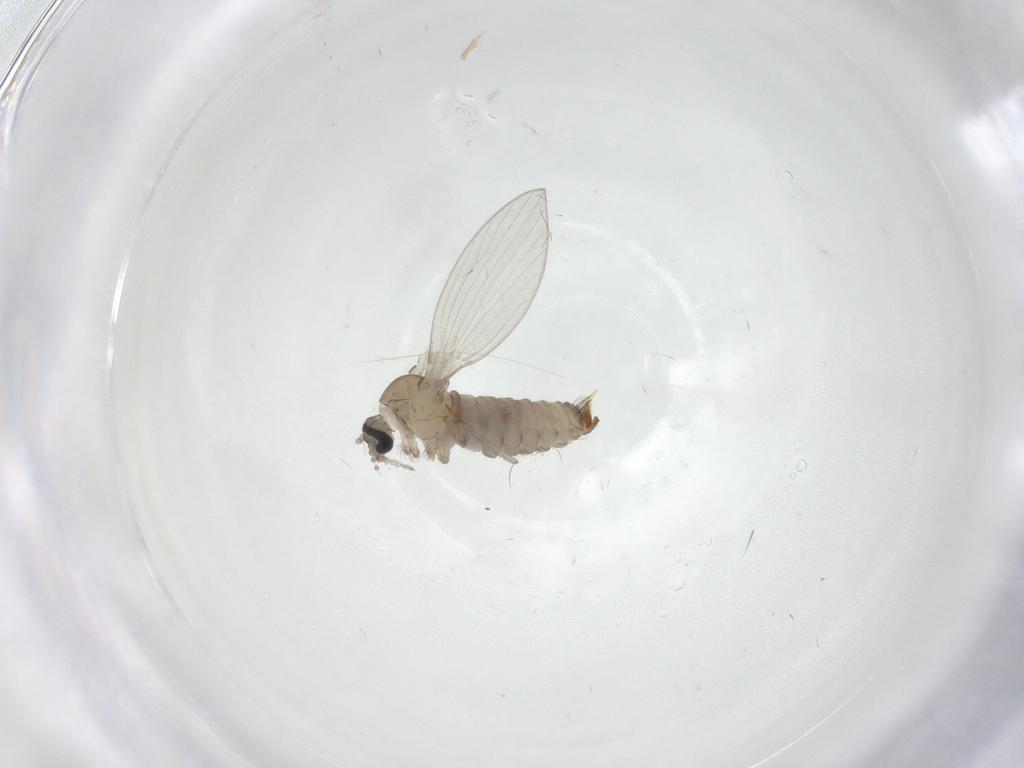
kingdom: Animalia
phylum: Arthropoda
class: Insecta
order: Diptera
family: Psychodidae
